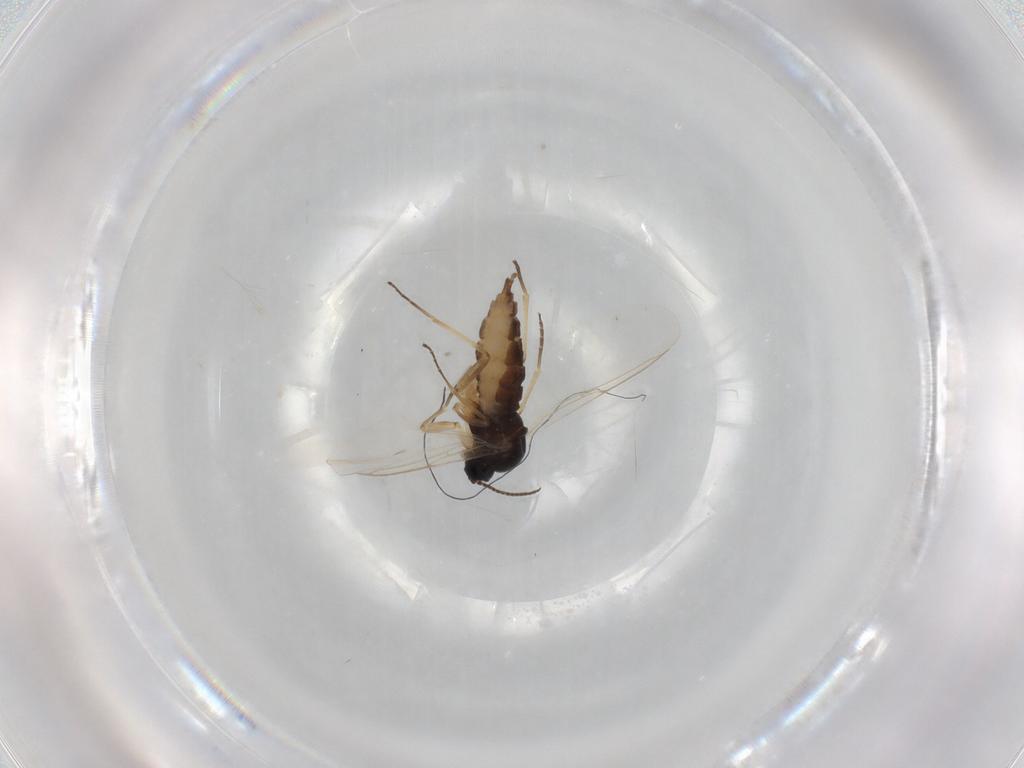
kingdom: Animalia
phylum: Arthropoda
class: Insecta
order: Diptera
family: Sciaridae
